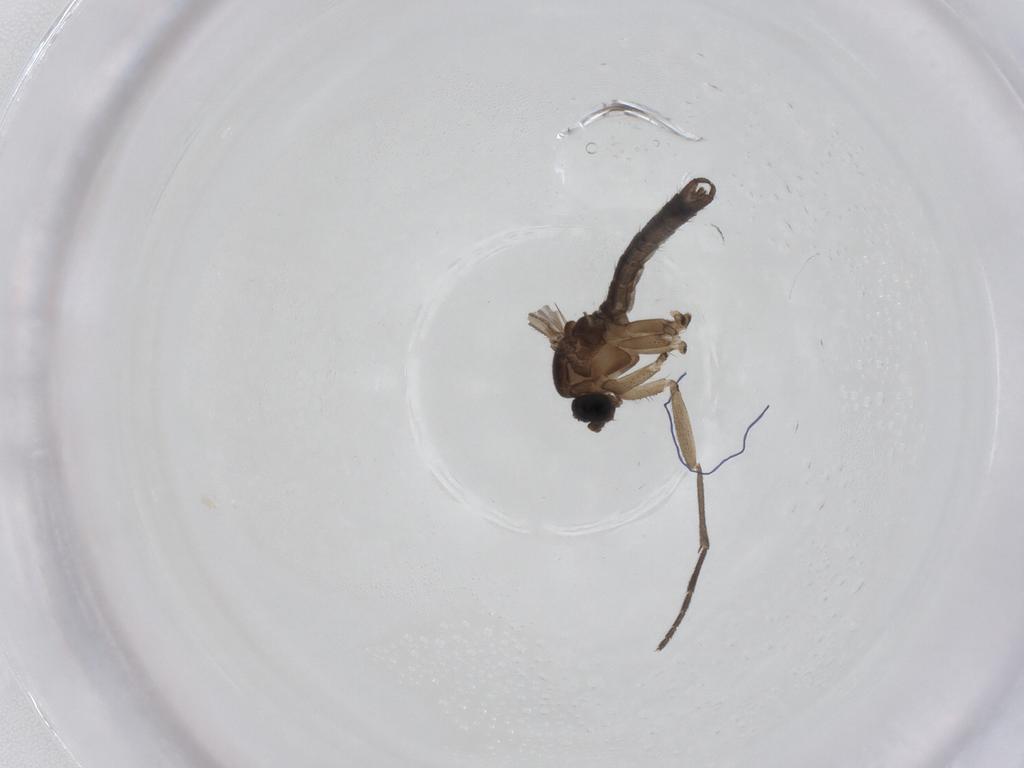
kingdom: Animalia
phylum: Arthropoda
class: Insecta
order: Diptera
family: Sciaridae
